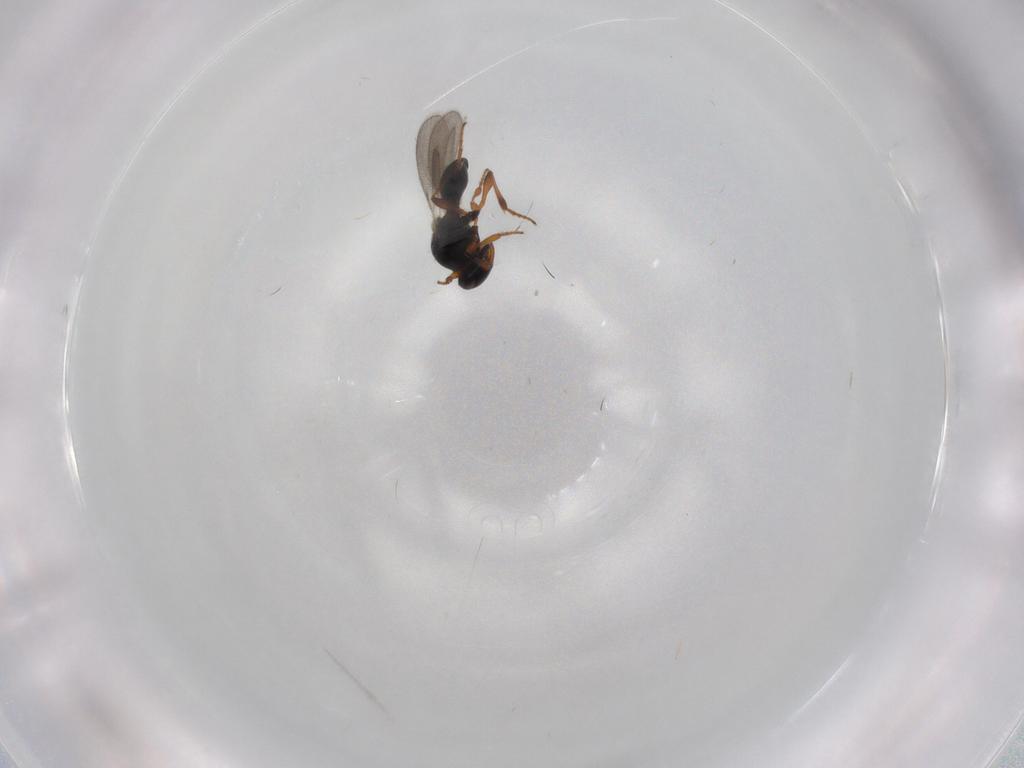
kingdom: Animalia
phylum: Arthropoda
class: Insecta
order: Hymenoptera
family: Platygastridae
